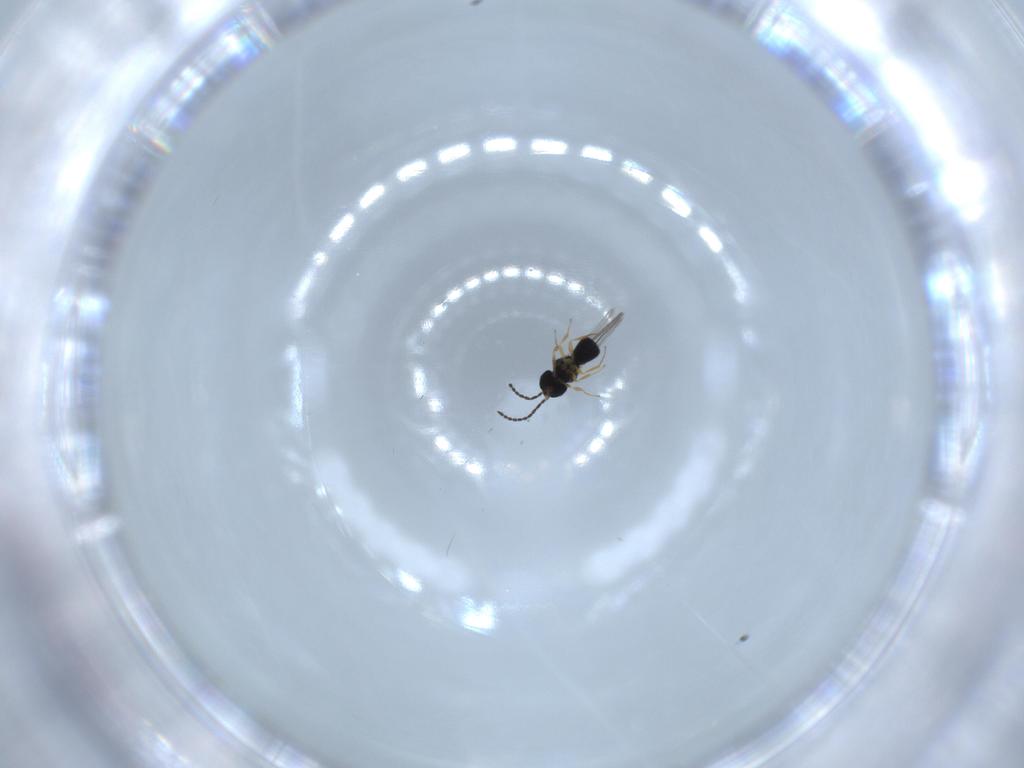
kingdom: Animalia
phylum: Arthropoda
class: Insecta
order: Hymenoptera
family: Scelionidae
